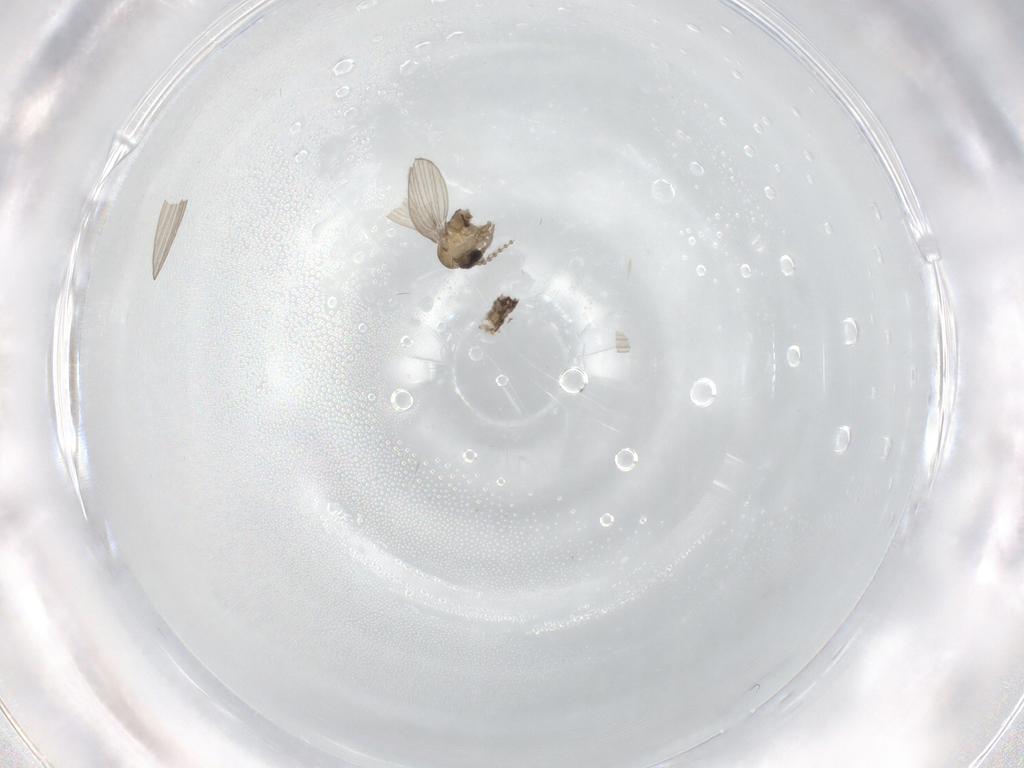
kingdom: Animalia
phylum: Arthropoda
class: Insecta
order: Diptera
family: Psychodidae
